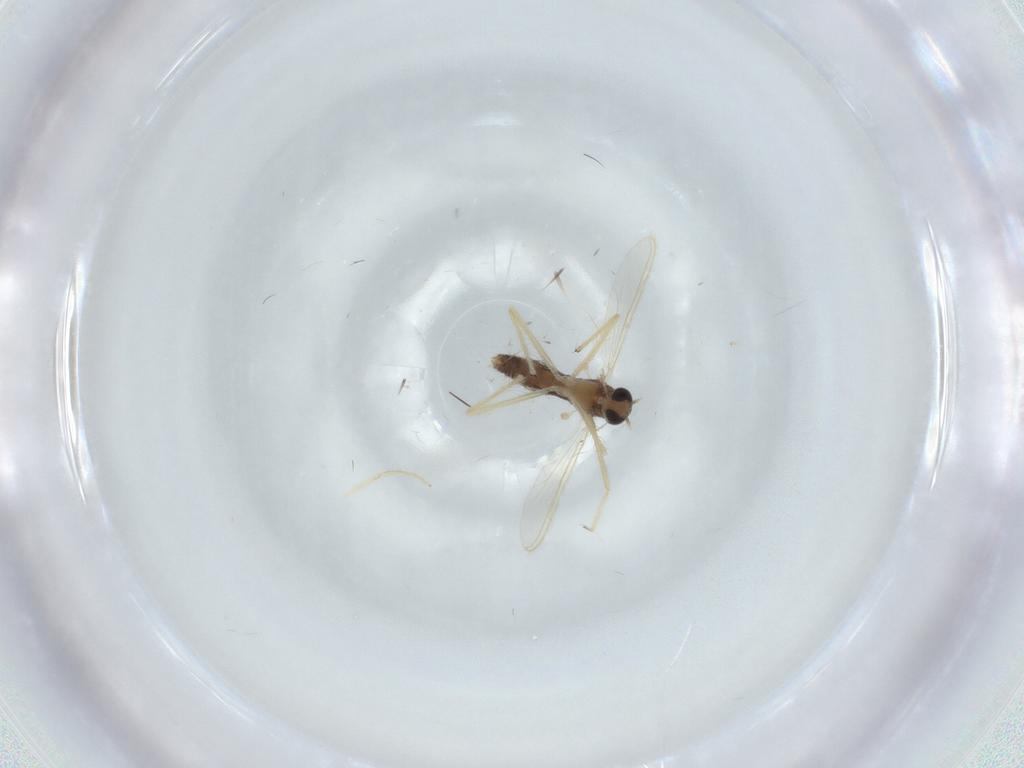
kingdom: Animalia
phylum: Arthropoda
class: Insecta
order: Diptera
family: Chironomidae
